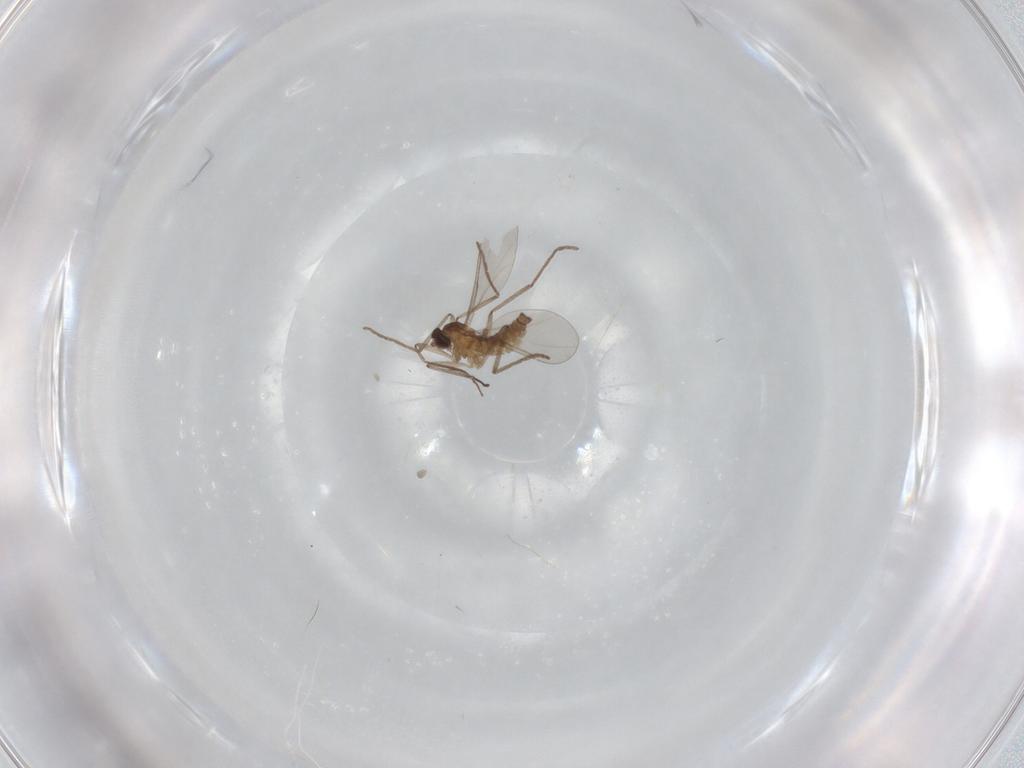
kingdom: Animalia
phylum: Arthropoda
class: Insecta
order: Diptera
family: Cecidomyiidae
